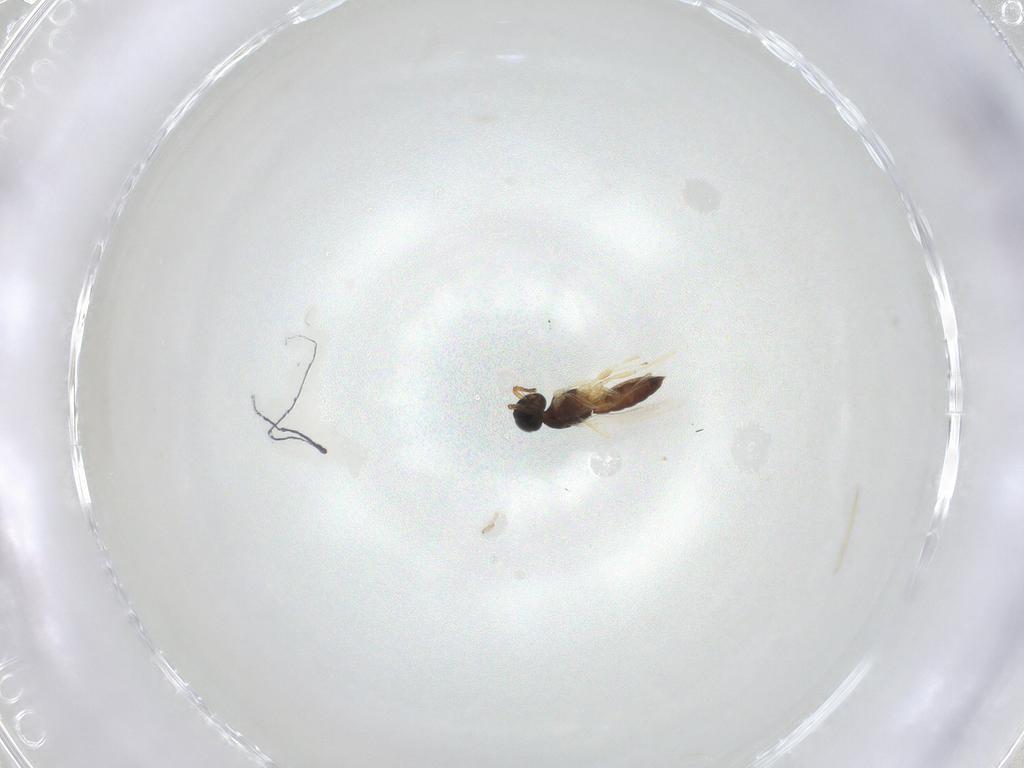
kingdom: Animalia
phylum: Arthropoda
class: Insecta
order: Hymenoptera
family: Scelionidae
